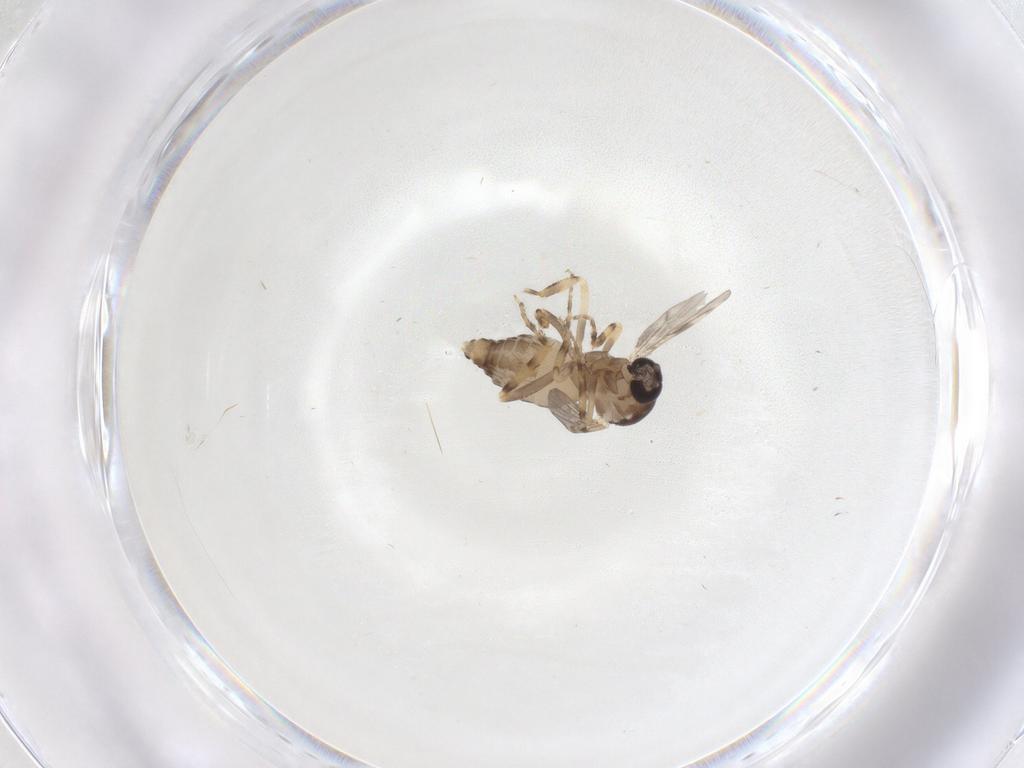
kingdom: Animalia
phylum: Arthropoda
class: Insecta
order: Diptera
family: Ceratopogonidae
